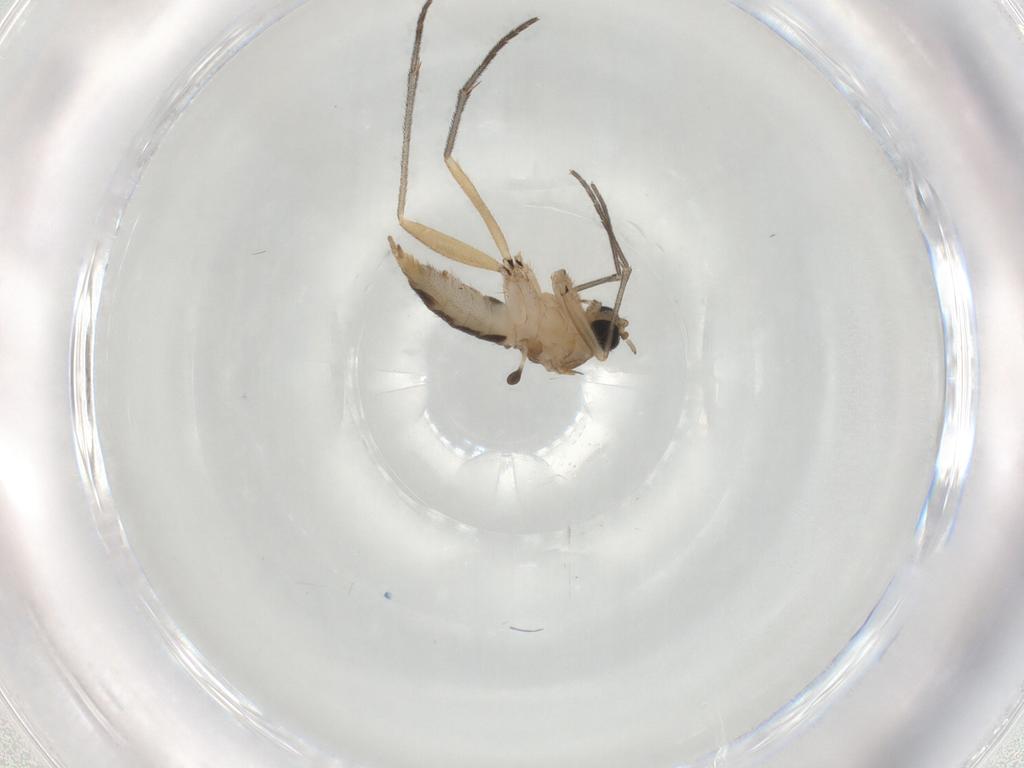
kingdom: Animalia
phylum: Arthropoda
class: Insecta
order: Diptera
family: Sciaridae
